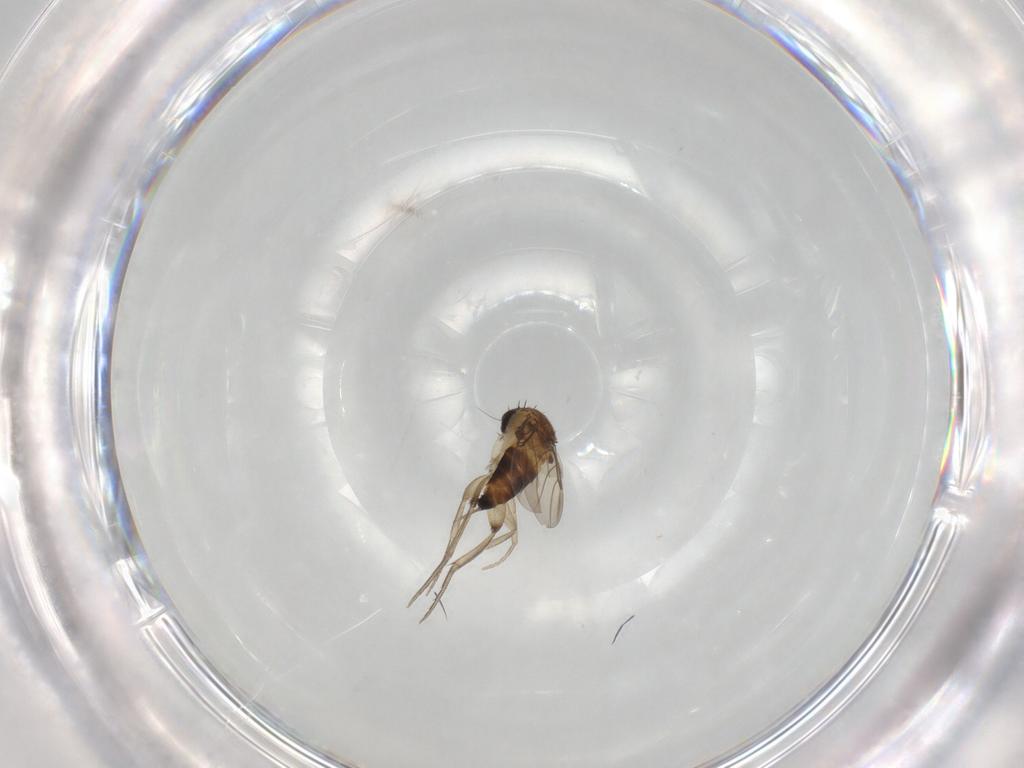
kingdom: Animalia
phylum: Arthropoda
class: Insecta
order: Diptera
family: Phoridae
